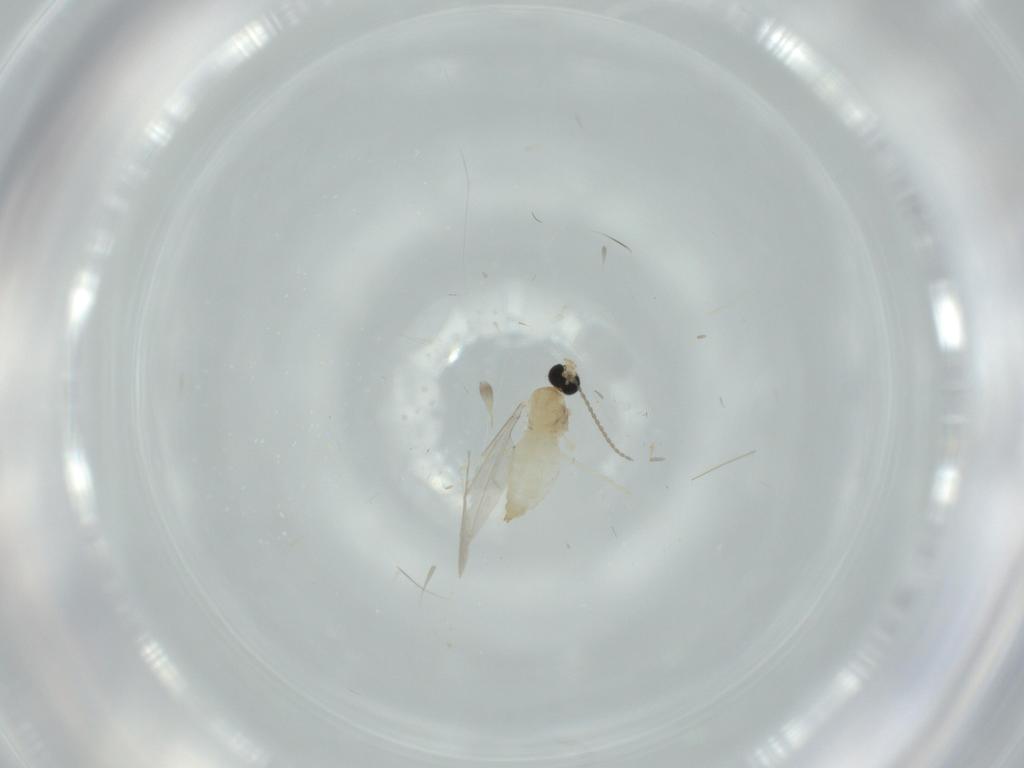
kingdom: Animalia
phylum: Arthropoda
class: Insecta
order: Diptera
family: Cecidomyiidae
